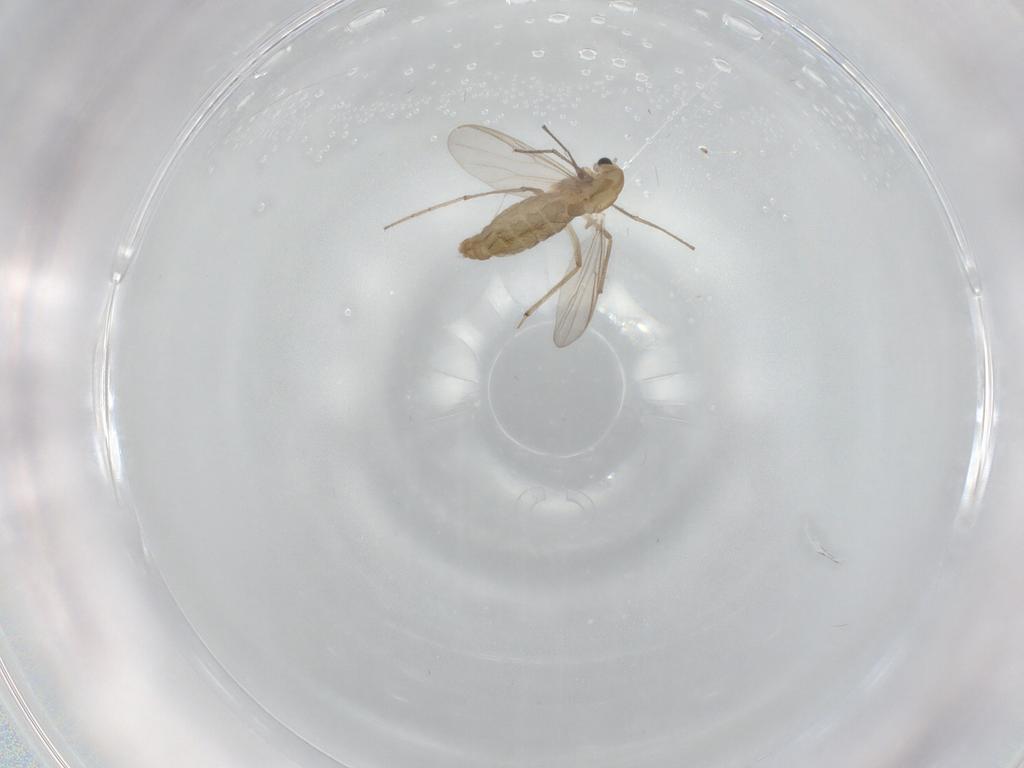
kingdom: Animalia
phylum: Arthropoda
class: Insecta
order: Diptera
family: Chironomidae
